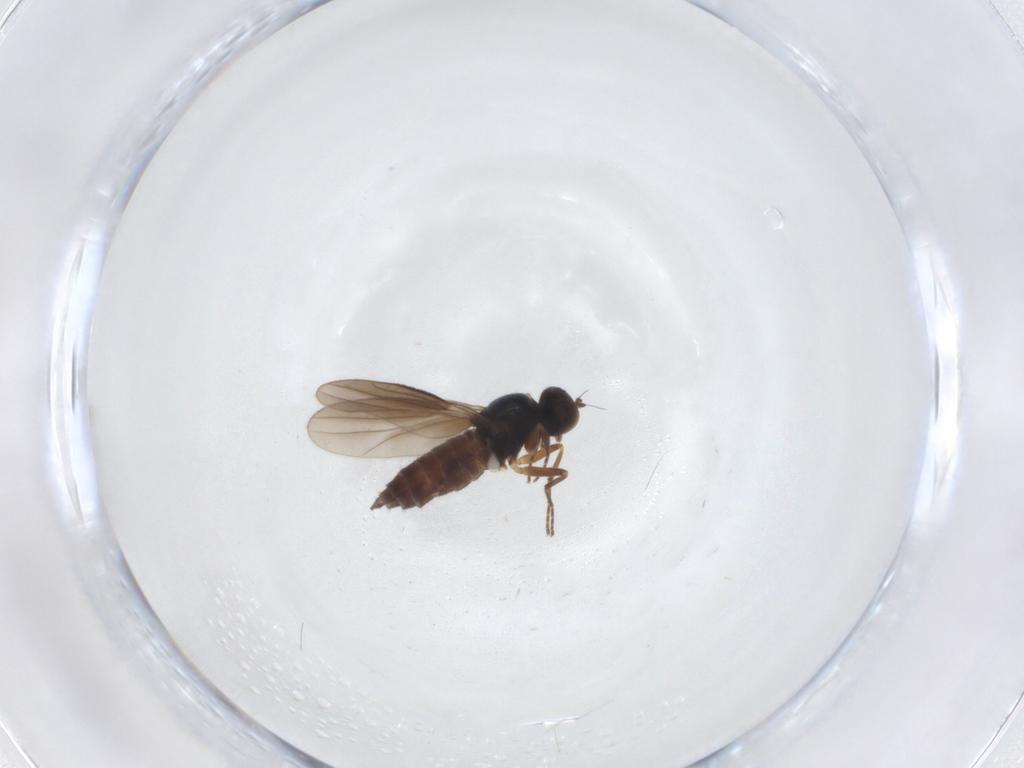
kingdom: Animalia
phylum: Arthropoda
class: Insecta
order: Diptera
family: Hybotidae
